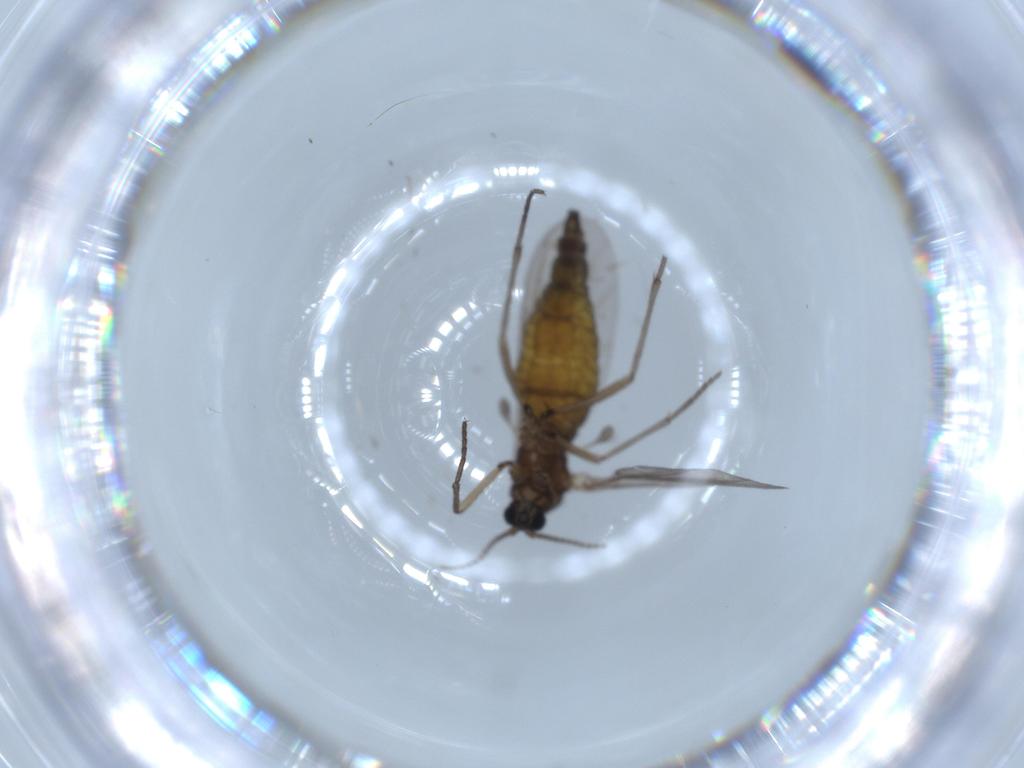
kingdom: Animalia
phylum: Arthropoda
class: Insecta
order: Diptera
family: Sciaridae
